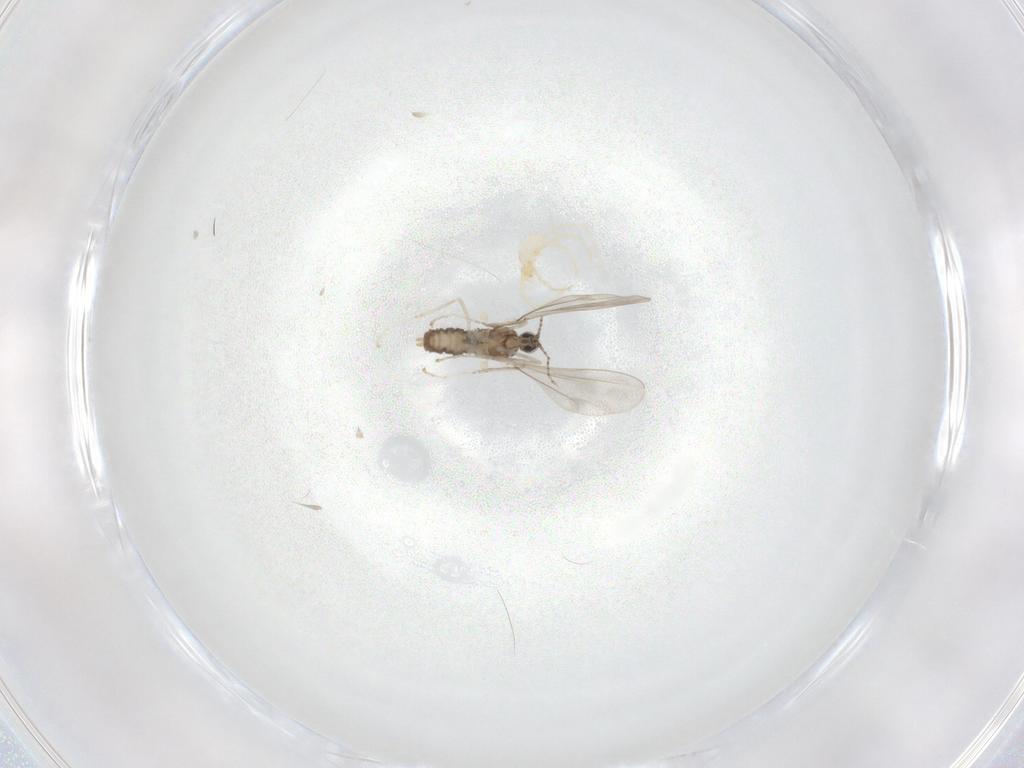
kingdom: Animalia
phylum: Arthropoda
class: Insecta
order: Diptera
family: Cecidomyiidae
